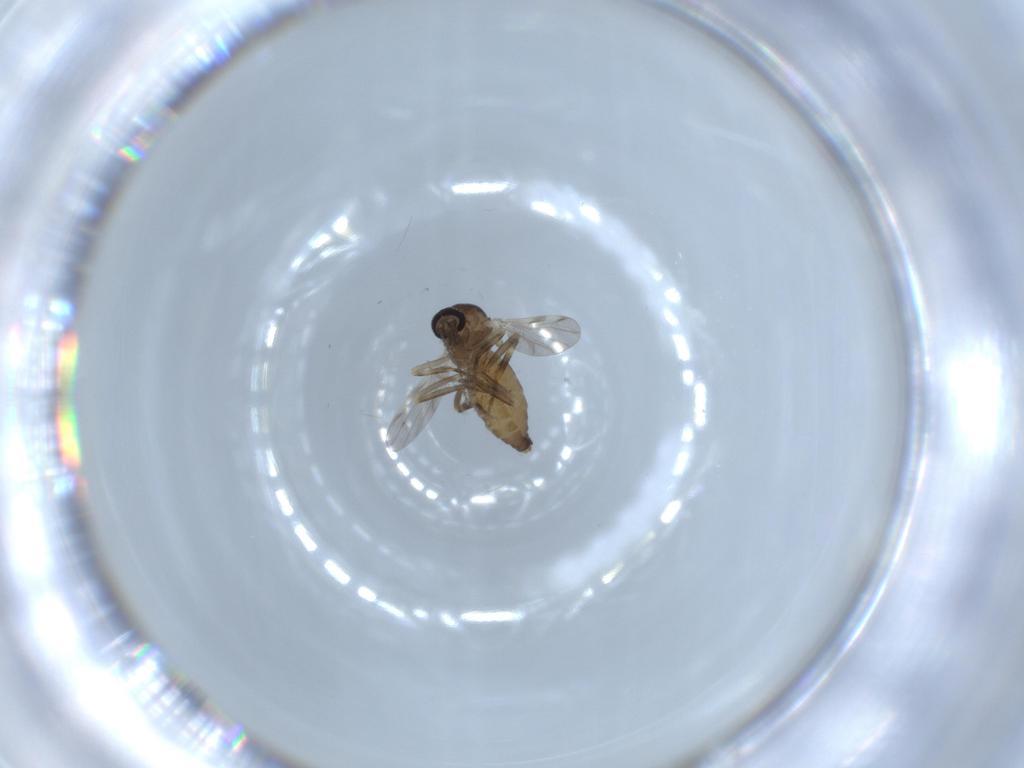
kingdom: Animalia
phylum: Arthropoda
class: Insecta
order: Diptera
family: Ceratopogonidae
